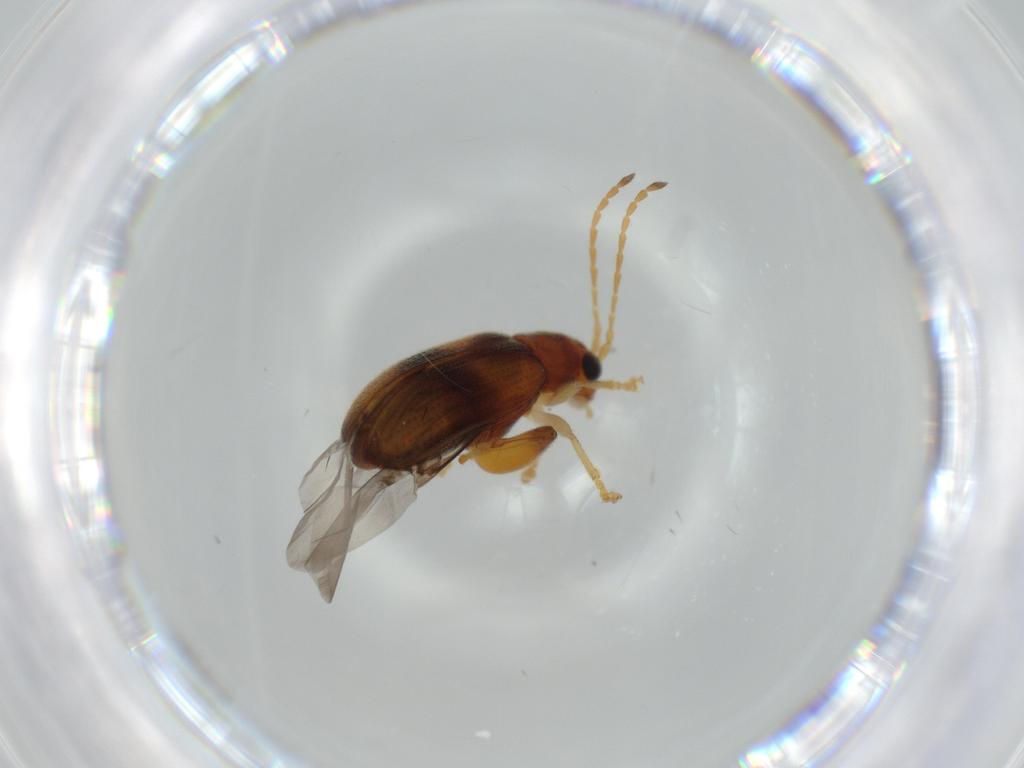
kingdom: Animalia
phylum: Arthropoda
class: Insecta
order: Coleoptera
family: Chrysomelidae
